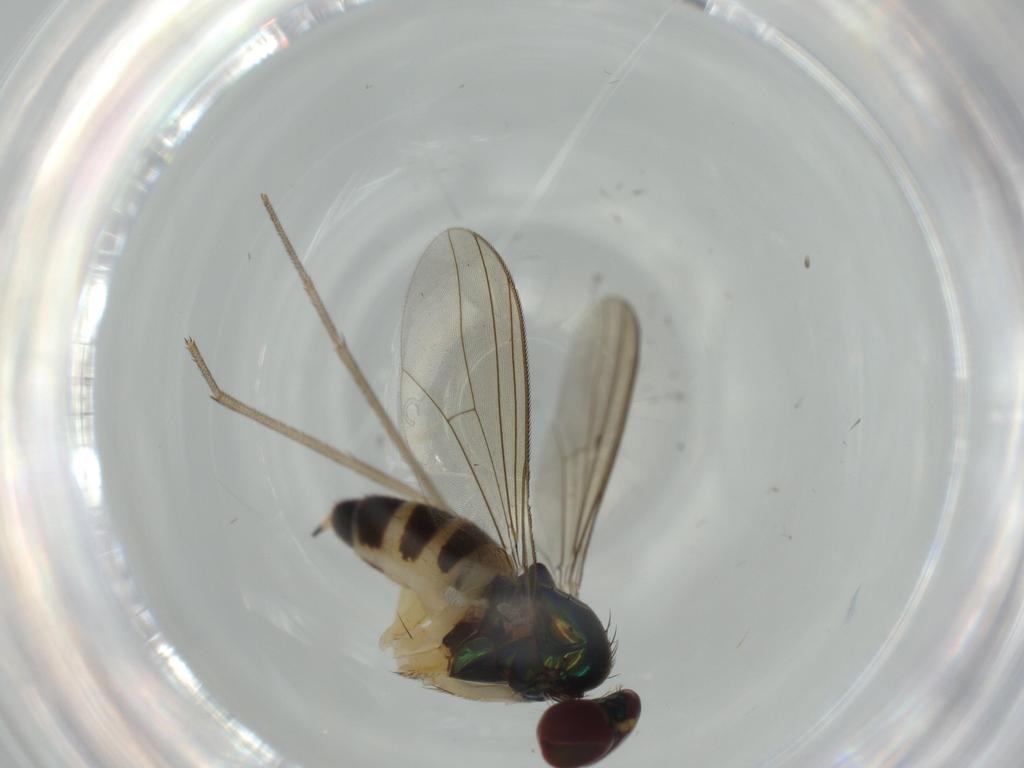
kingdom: Animalia
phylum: Arthropoda
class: Insecta
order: Diptera
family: Dolichopodidae
